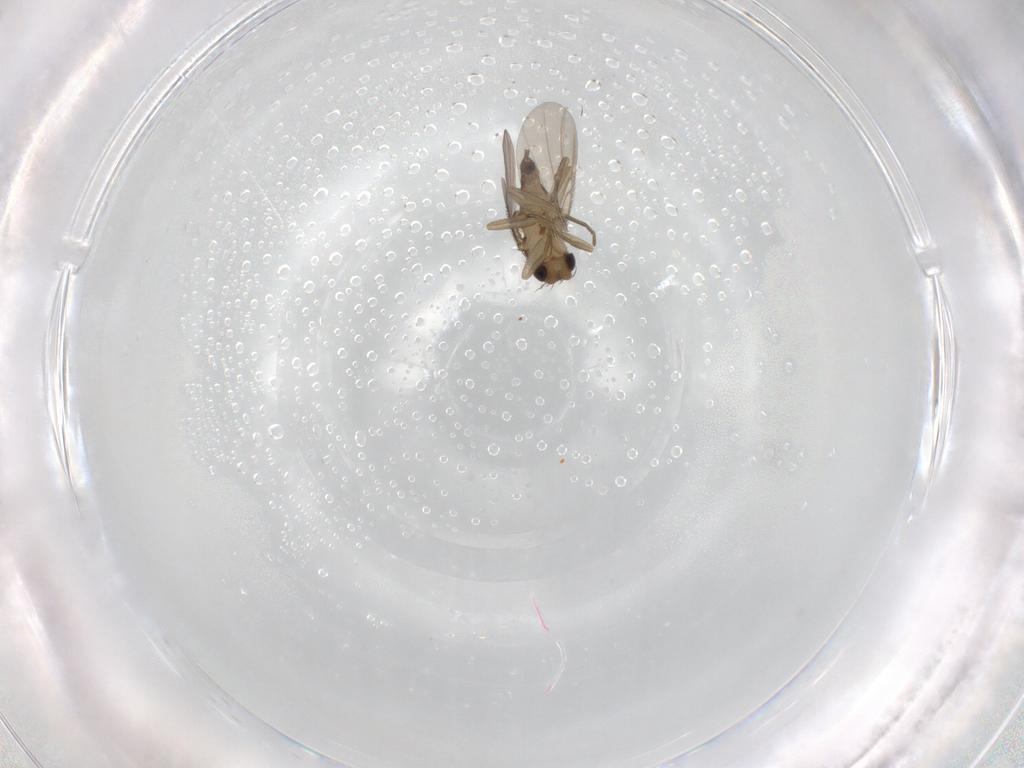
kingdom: Animalia
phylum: Arthropoda
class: Insecta
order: Diptera
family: Phoridae
